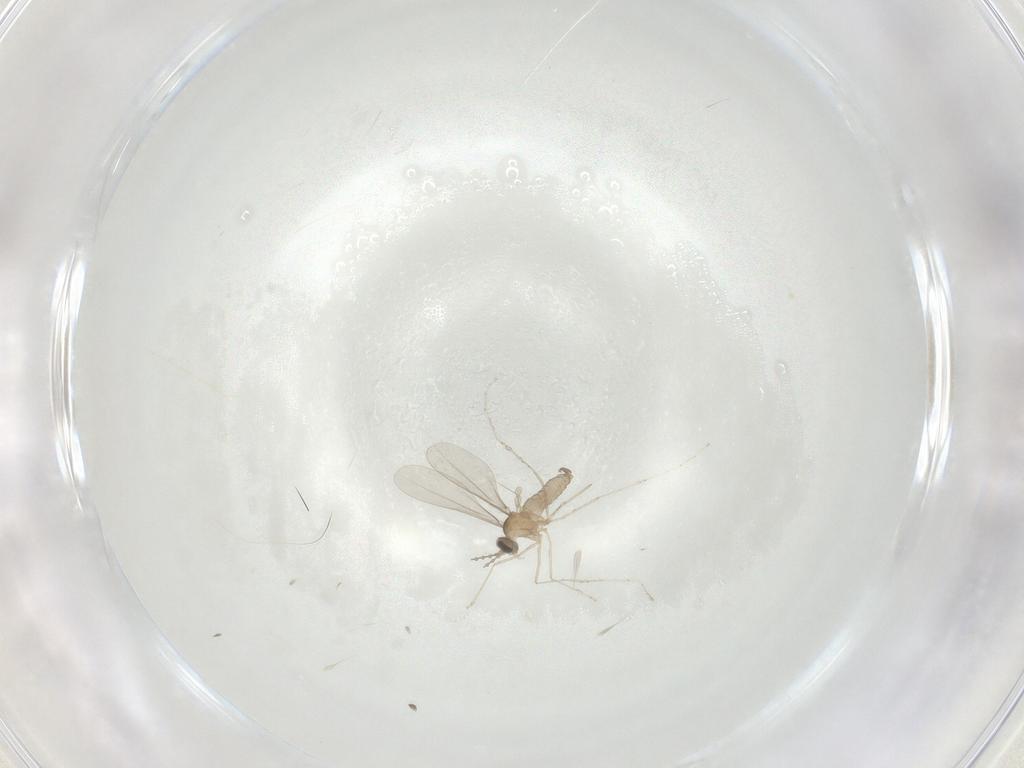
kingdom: Animalia
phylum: Arthropoda
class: Insecta
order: Diptera
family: Cecidomyiidae
